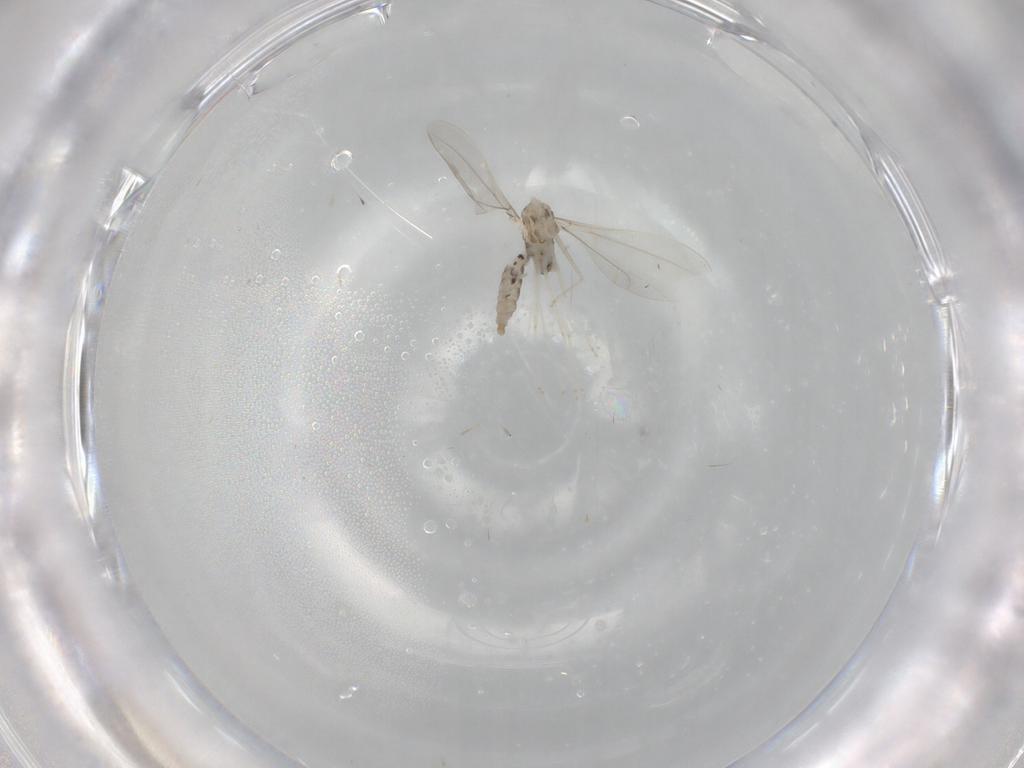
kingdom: Animalia
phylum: Arthropoda
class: Insecta
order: Diptera
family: Cecidomyiidae
